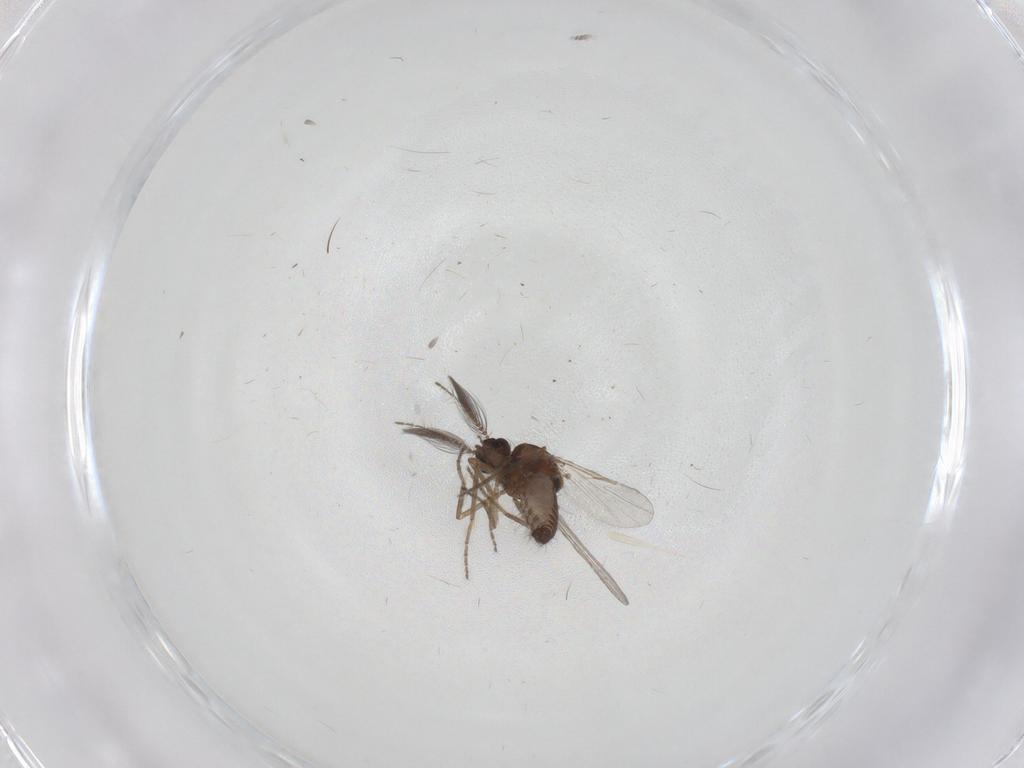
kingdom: Animalia
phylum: Arthropoda
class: Insecta
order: Diptera
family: Ceratopogonidae
